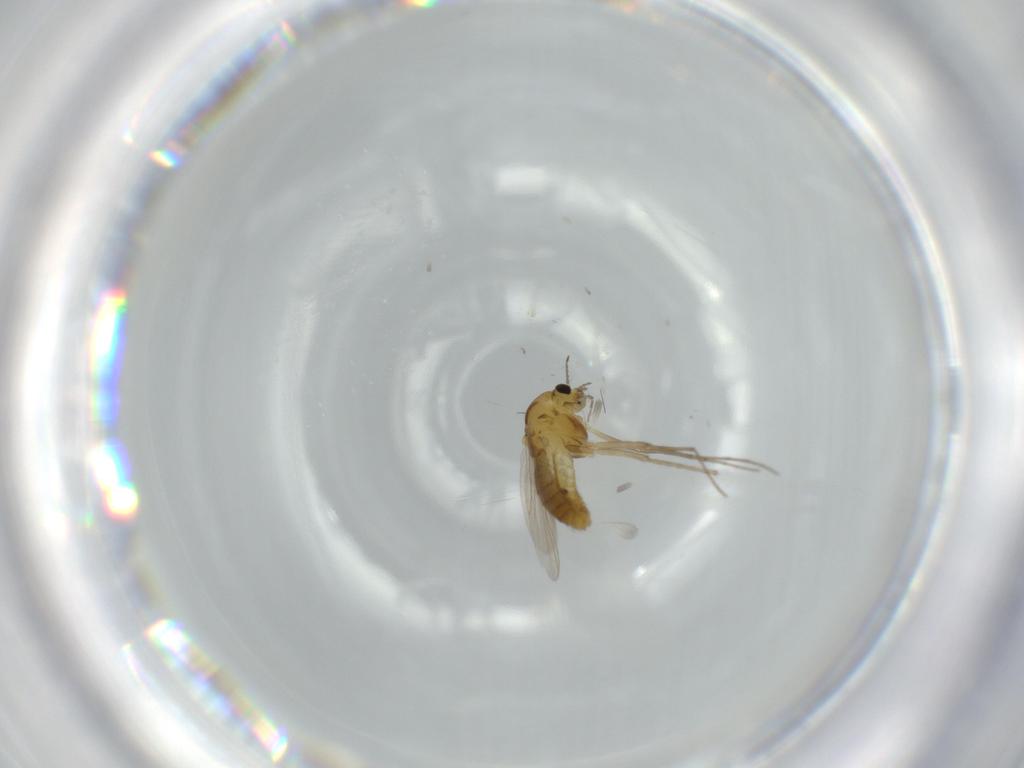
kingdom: Animalia
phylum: Arthropoda
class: Insecta
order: Diptera
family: Chironomidae
